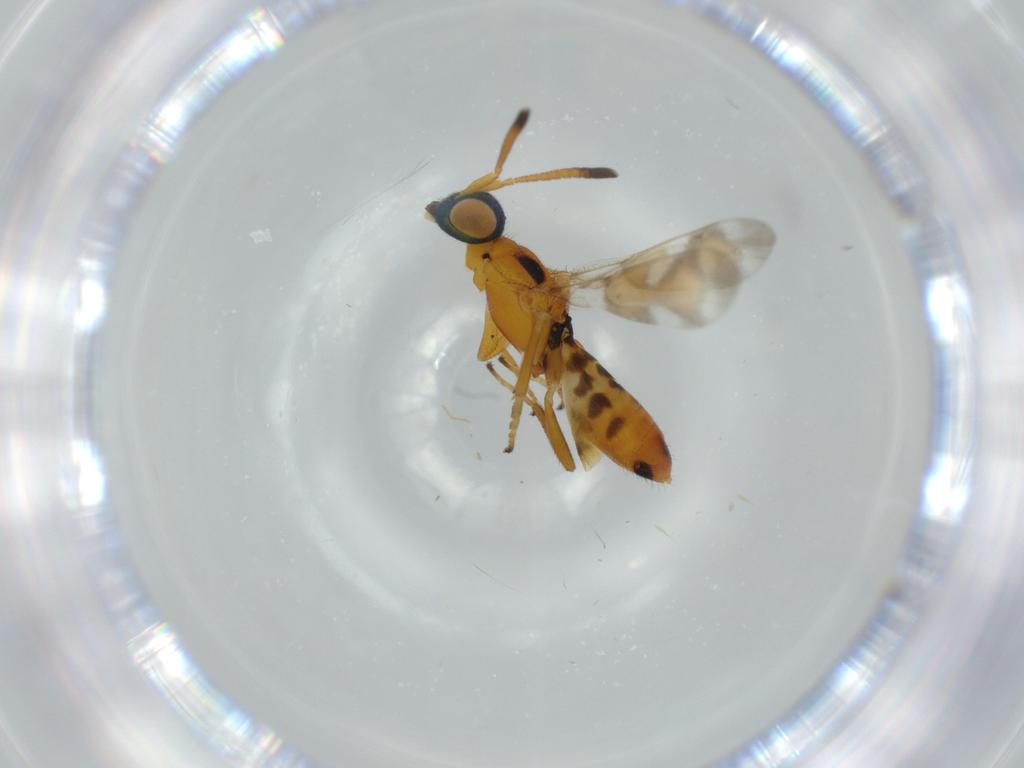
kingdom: Animalia
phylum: Arthropoda
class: Insecta
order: Hymenoptera
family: Eupelmidae
